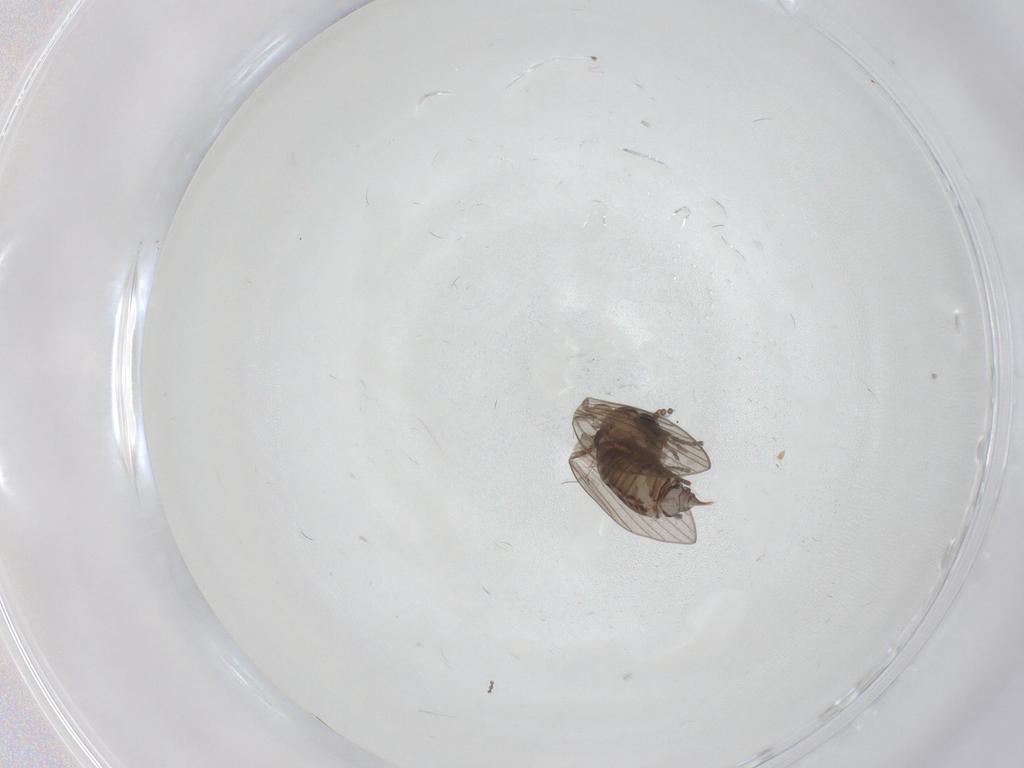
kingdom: Animalia
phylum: Arthropoda
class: Insecta
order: Diptera
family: Psychodidae
